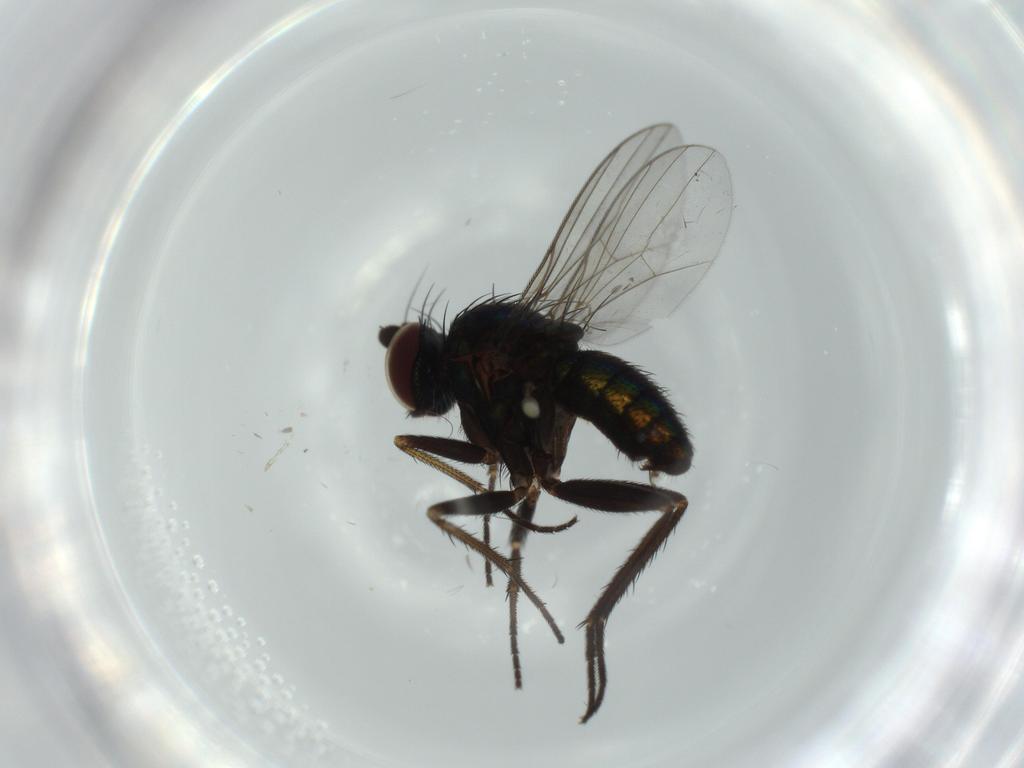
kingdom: Animalia
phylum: Arthropoda
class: Insecta
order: Diptera
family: Dolichopodidae
